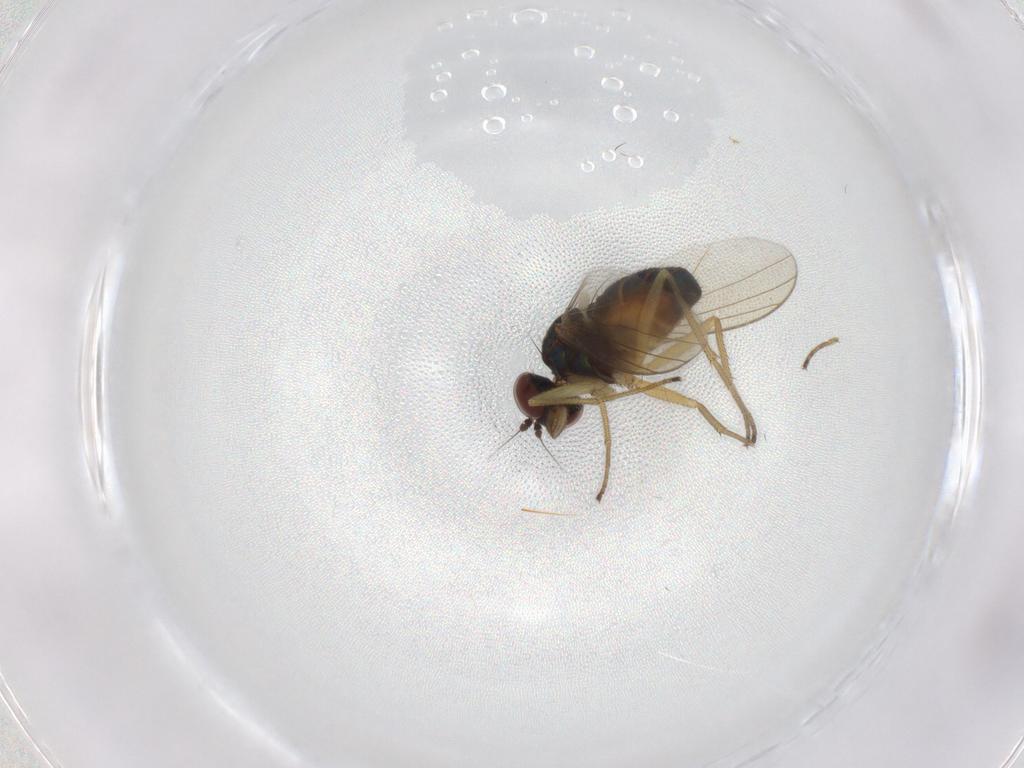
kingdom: Animalia
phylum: Arthropoda
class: Insecta
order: Diptera
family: Dolichopodidae
